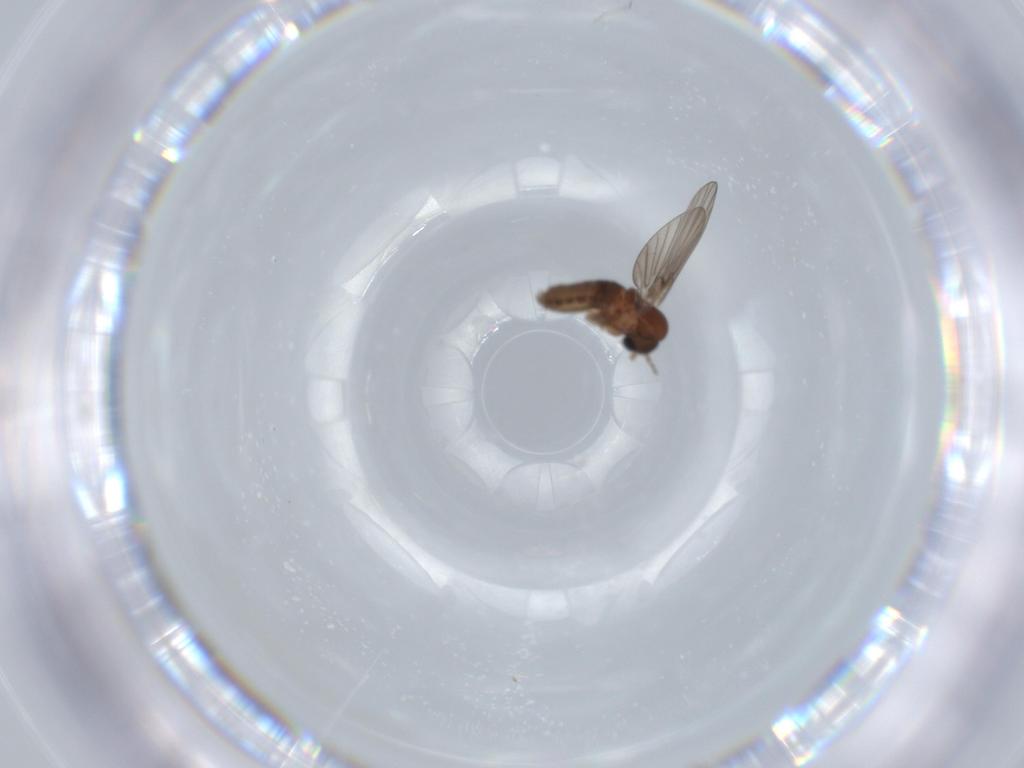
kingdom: Animalia
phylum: Arthropoda
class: Insecta
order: Diptera
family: Psychodidae
